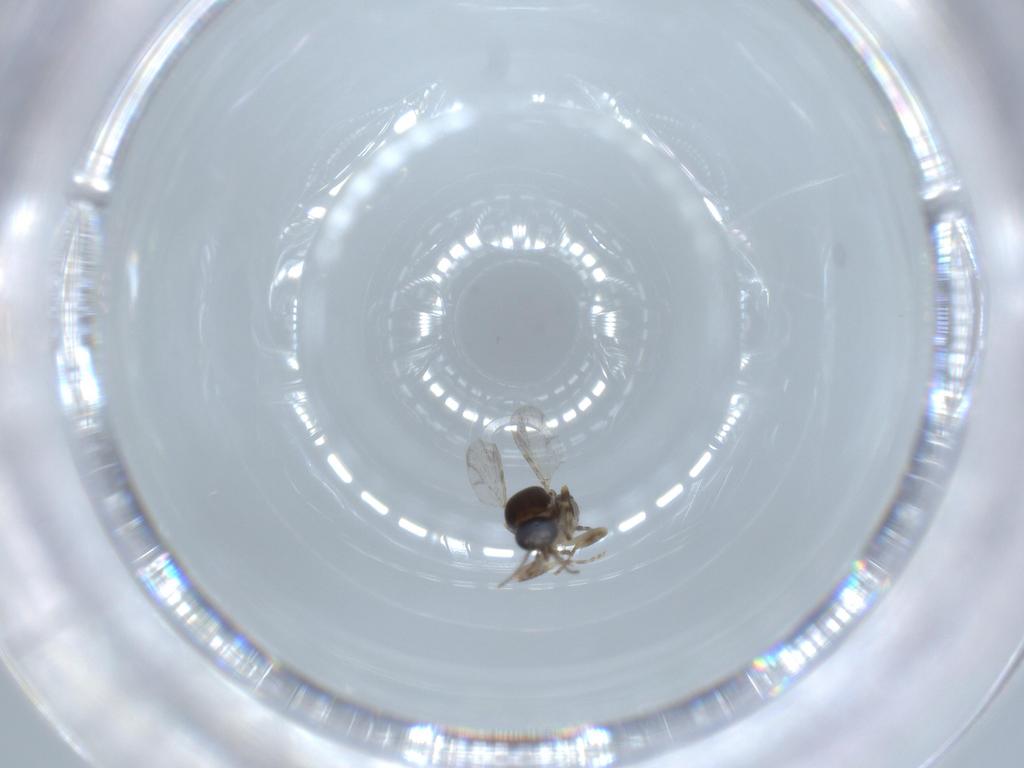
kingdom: Animalia
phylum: Arthropoda
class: Insecta
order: Diptera
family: Ceratopogonidae
